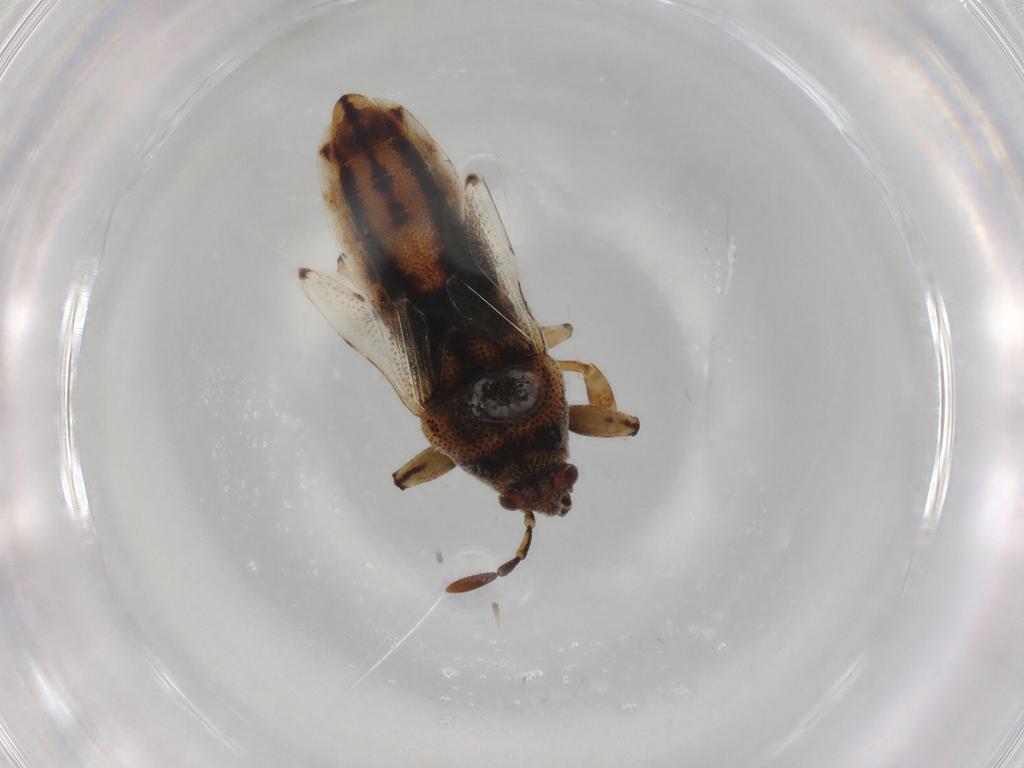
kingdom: Animalia
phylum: Arthropoda
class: Insecta
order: Hemiptera
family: Pachygronthidae
